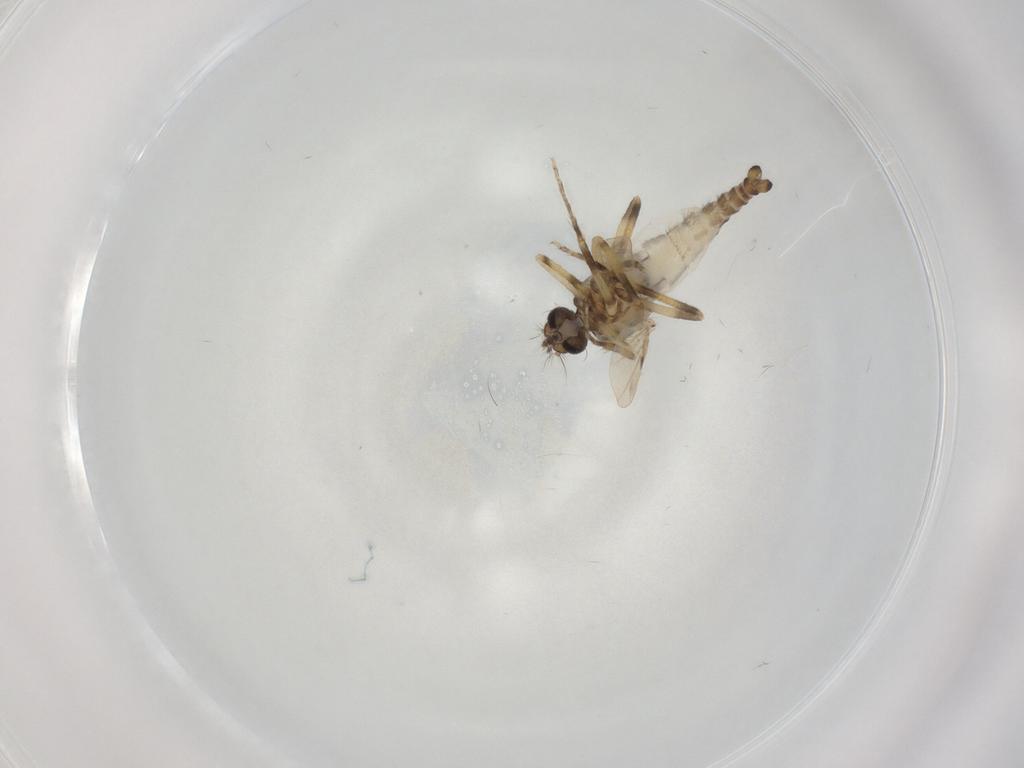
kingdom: Animalia
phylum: Arthropoda
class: Insecta
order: Diptera
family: Ceratopogonidae
